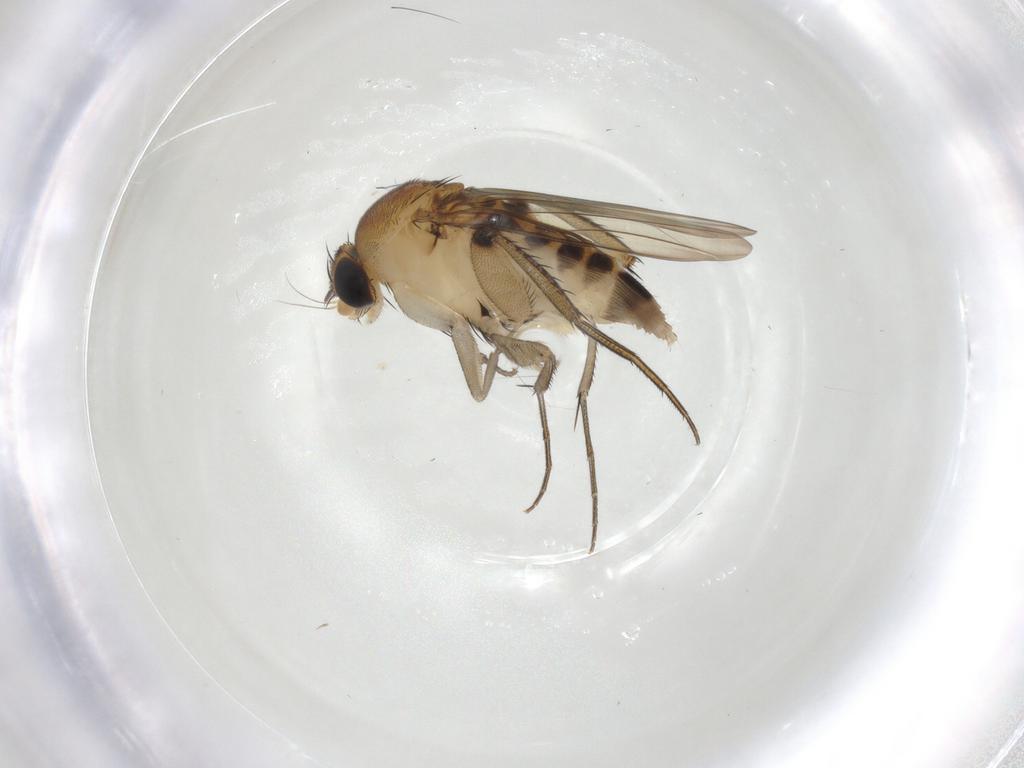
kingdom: Animalia
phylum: Arthropoda
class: Insecta
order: Diptera
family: Phoridae
